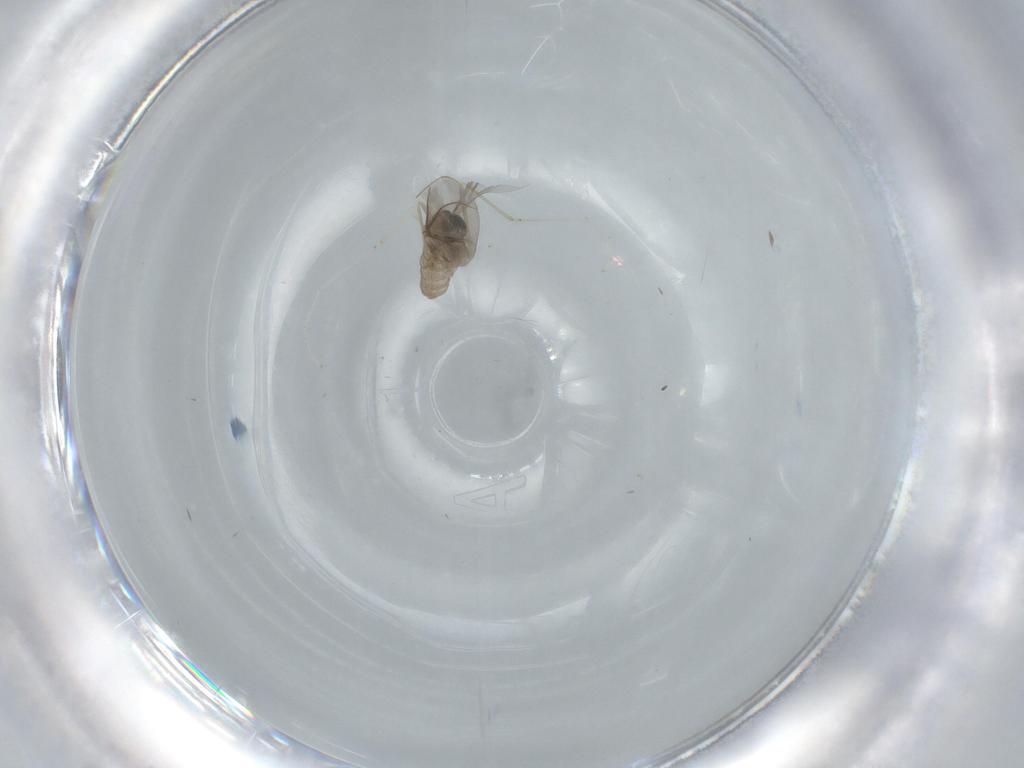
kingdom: Animalia
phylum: Arthropoda
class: Insecta
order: Diptera
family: Cecidomyiidae
